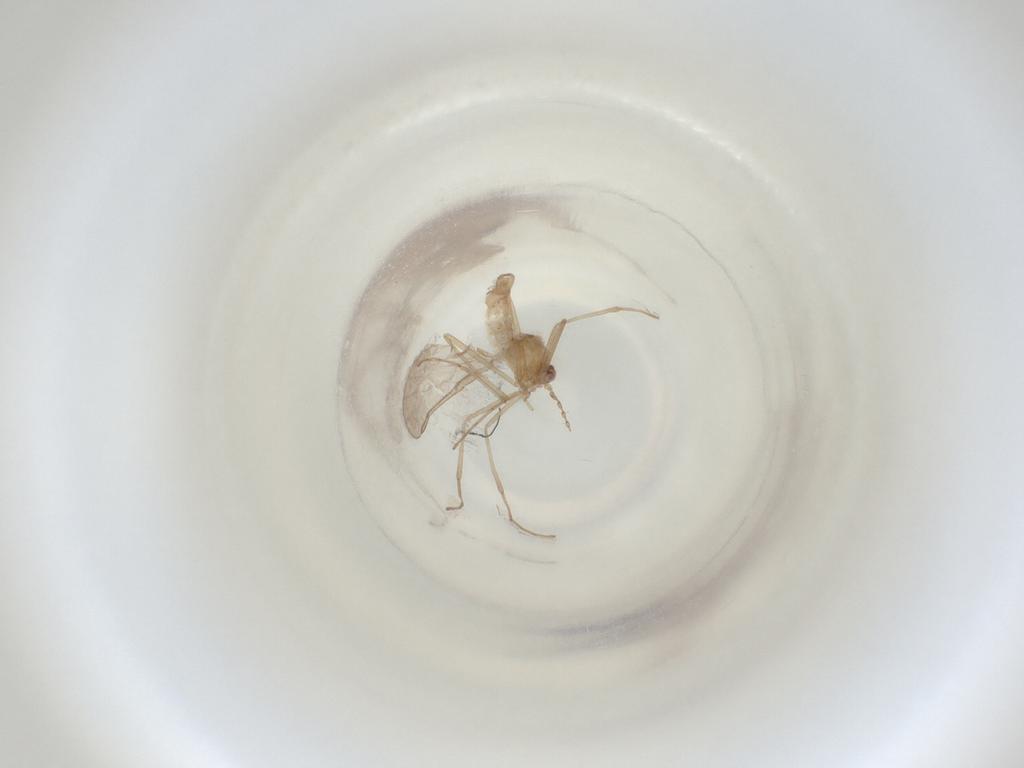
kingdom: Animalia
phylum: Arthropoda
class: Insecta
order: Diptera
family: Cecidomyiidae
